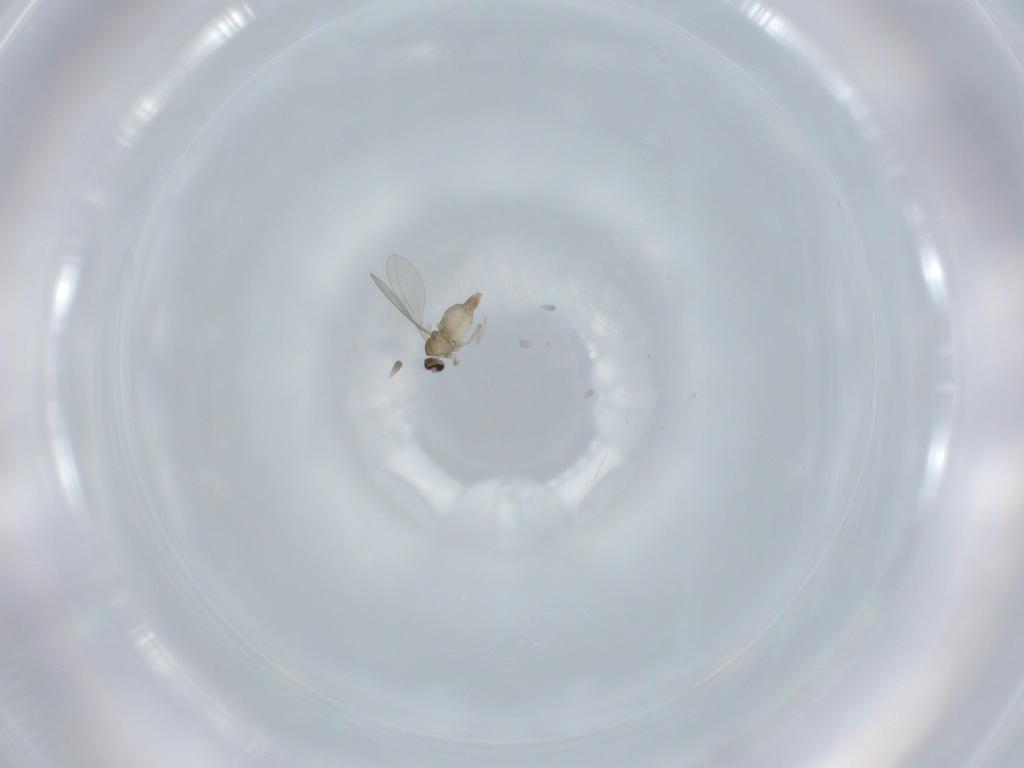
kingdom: Animalia
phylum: Arthropoda
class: Insecta
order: Diptera
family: Cecidomyiidae
